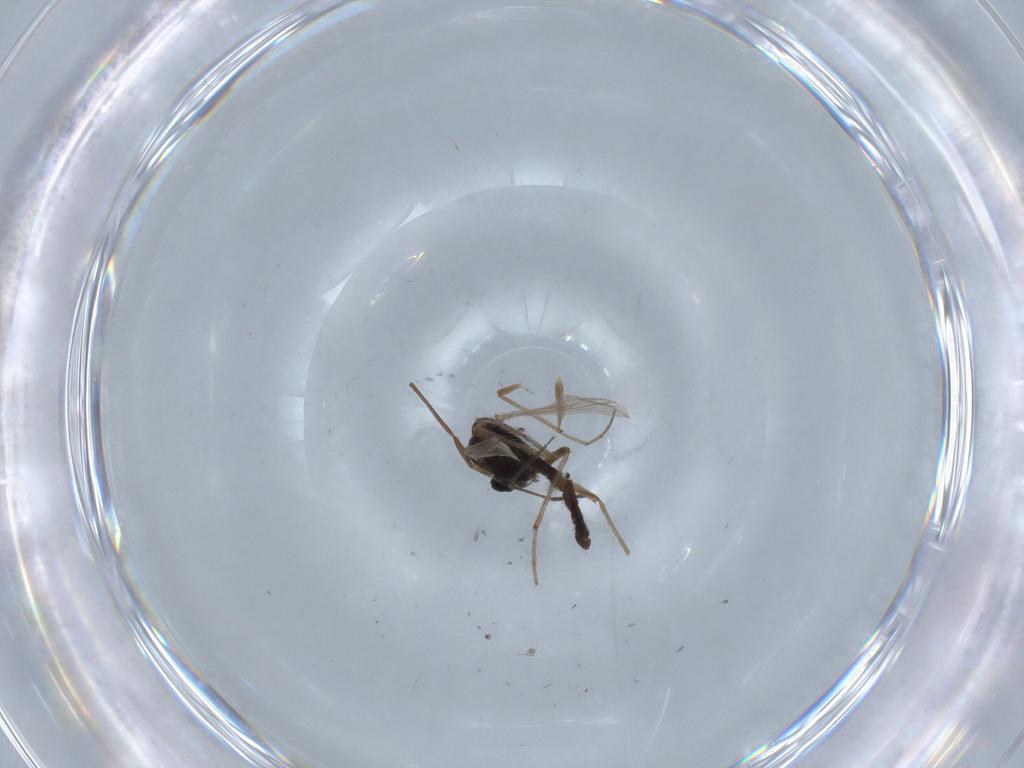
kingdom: Animalia
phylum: Arthropoda
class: Insecta
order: Diptera
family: Chironomidae
